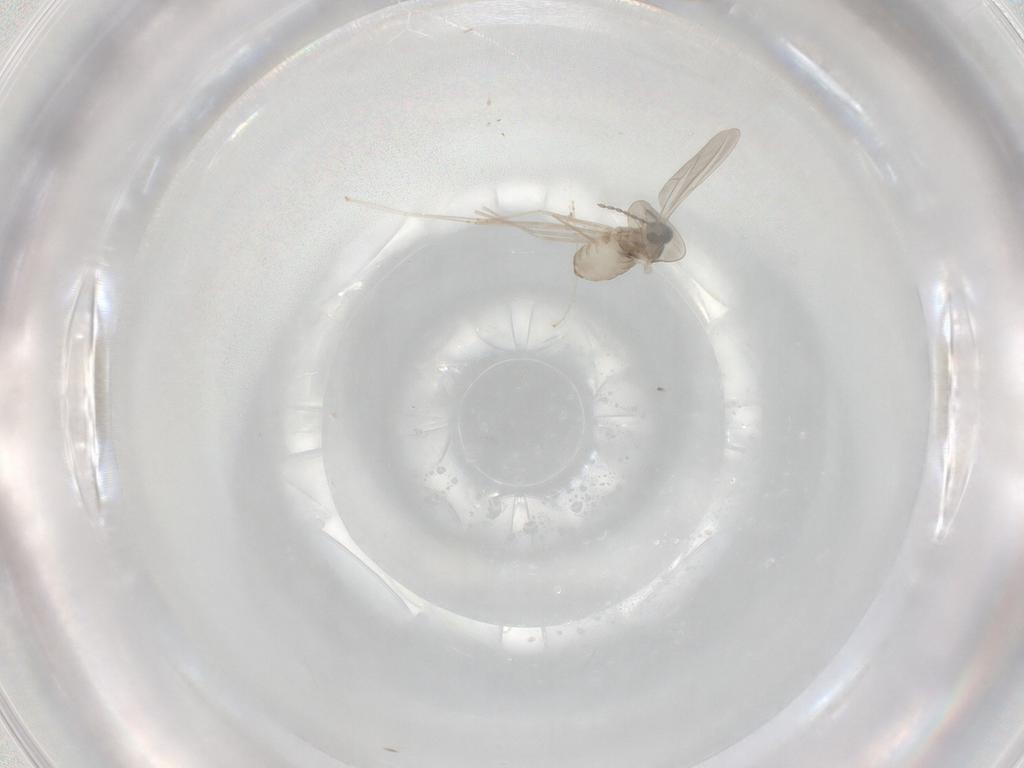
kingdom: Animalia
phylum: Arthropoda
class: Insecta
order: Diptera
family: Cecidomyiidae
